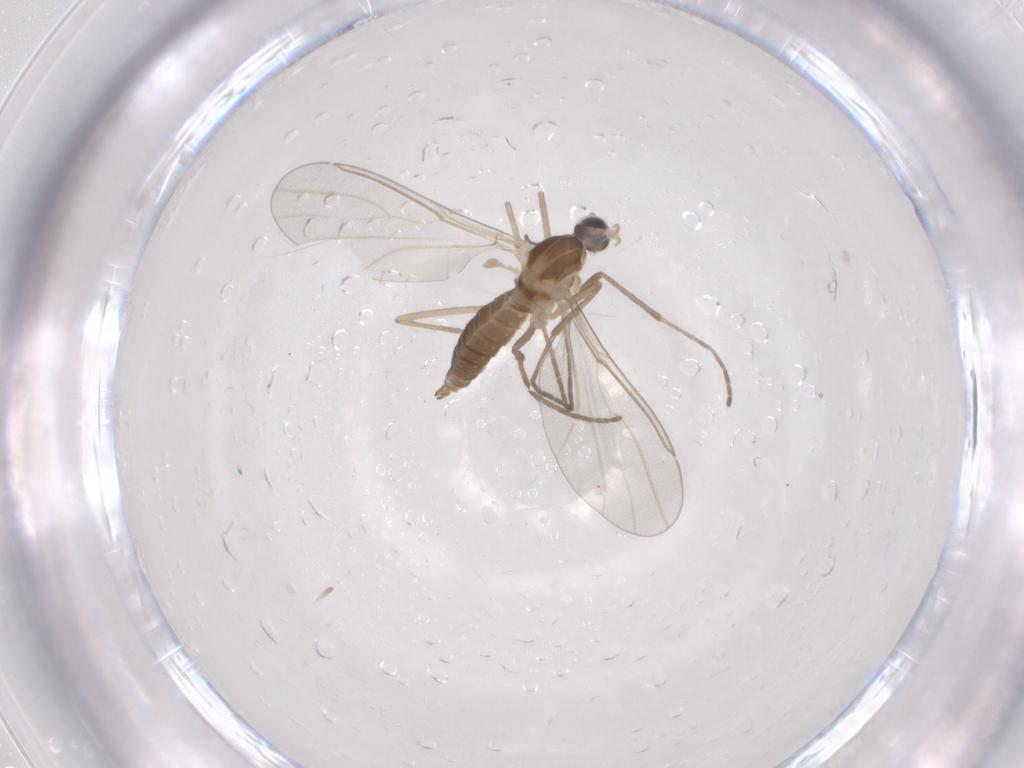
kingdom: Animalia
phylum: Arthropoda
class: Insecta
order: Diptera
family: Cecidomyiidae
